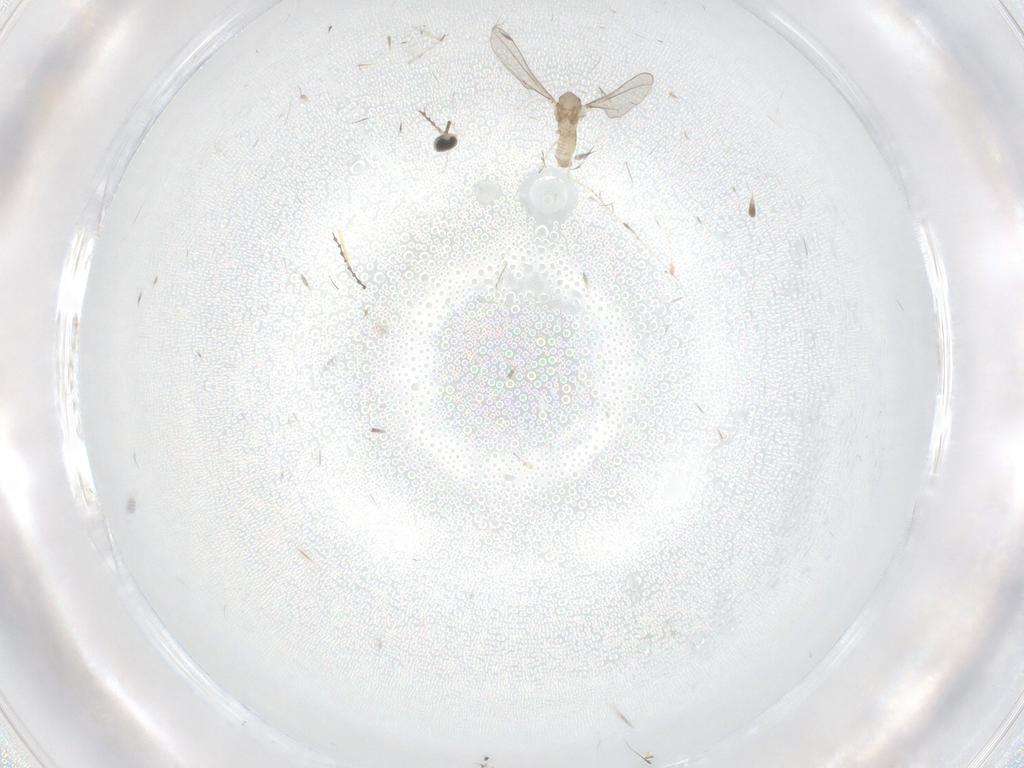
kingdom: Animalia
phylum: Arthropoda
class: Insecta
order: Diptera
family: Cecidomyiidae
